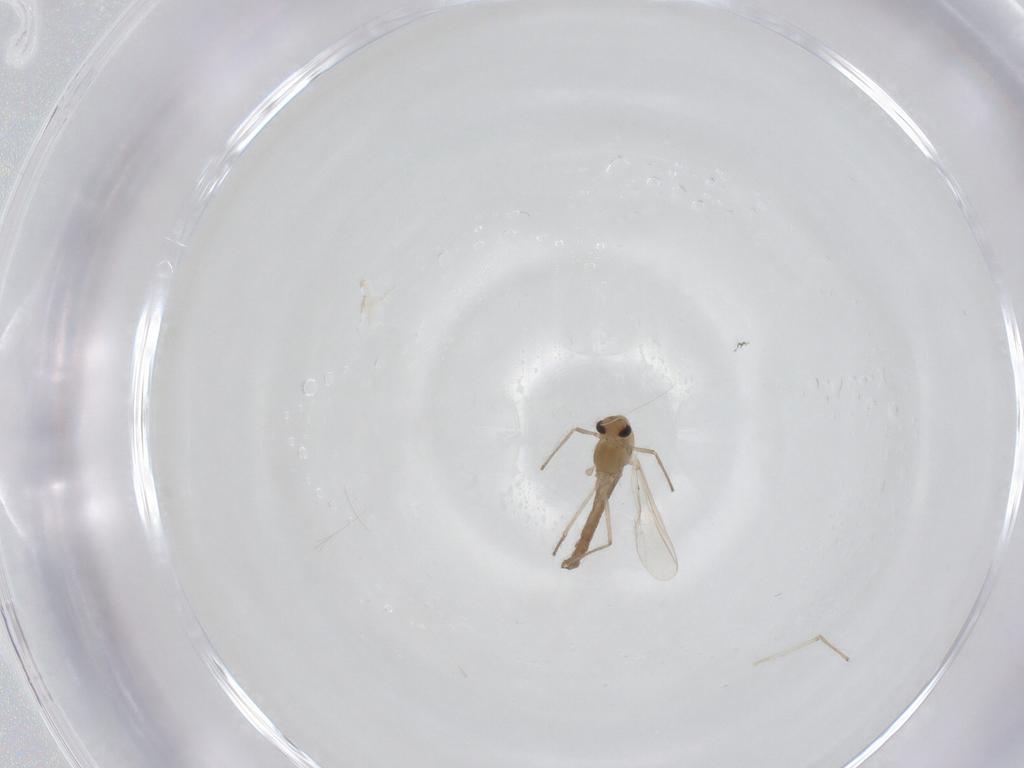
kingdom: Animalia
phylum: Arthropoda
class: Insecta
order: Diptera
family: Chironomidae
